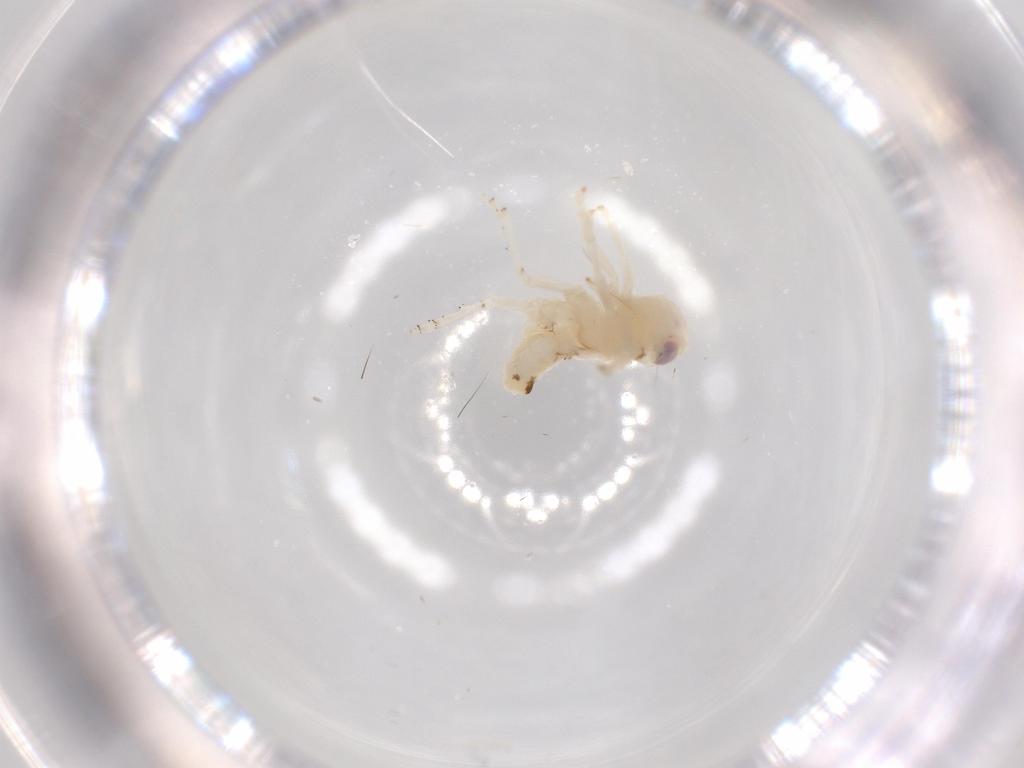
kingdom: Animalia
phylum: Arthropoda
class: Insecta
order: Hemiptera
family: Nogodinidae
